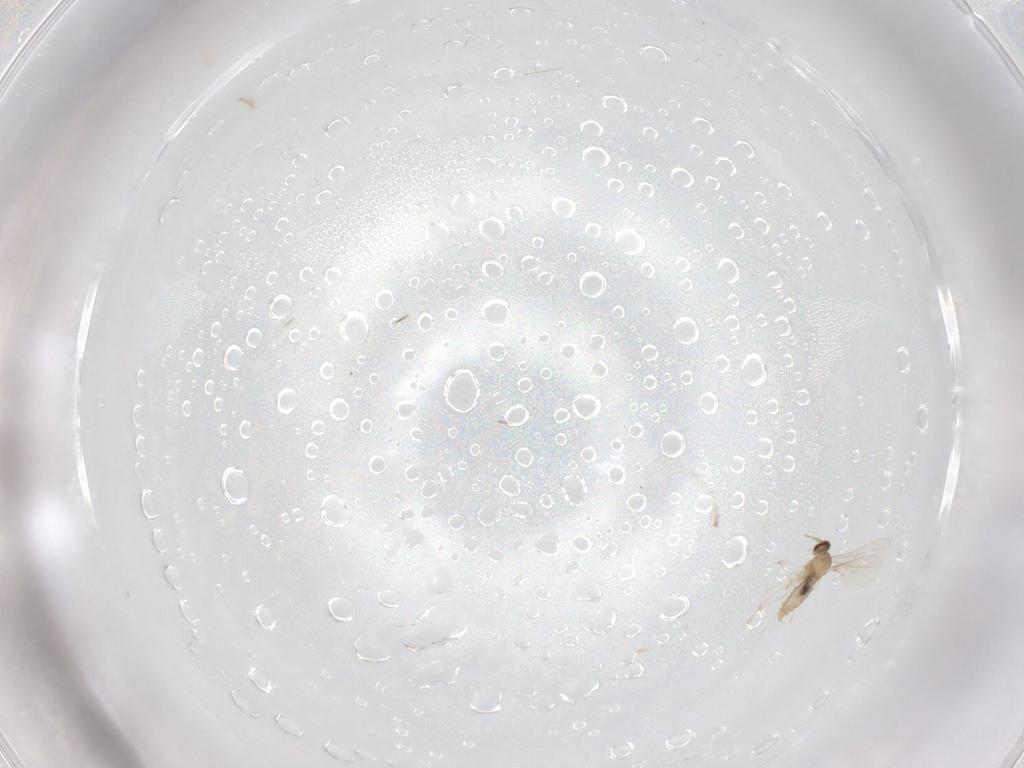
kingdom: Animalia
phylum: Arthropoda
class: Insecta
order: Diptera
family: Cecidomyiidae
